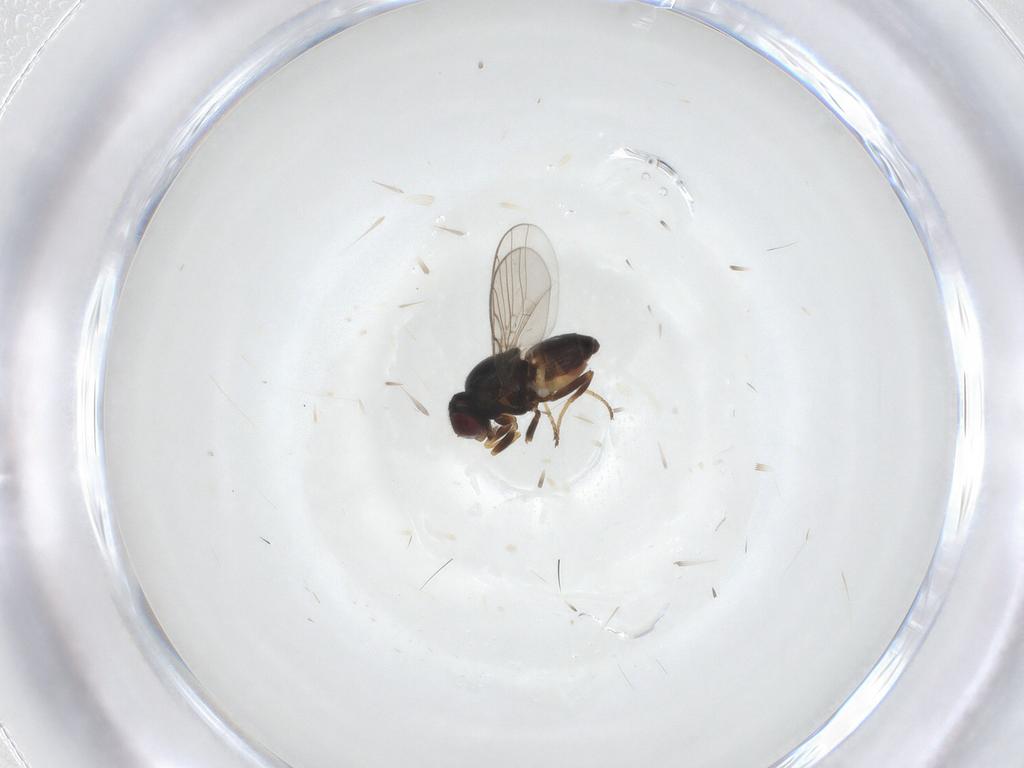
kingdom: Animalia
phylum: Arthropoda
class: Insecta
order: Diptera
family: Chloropidae
